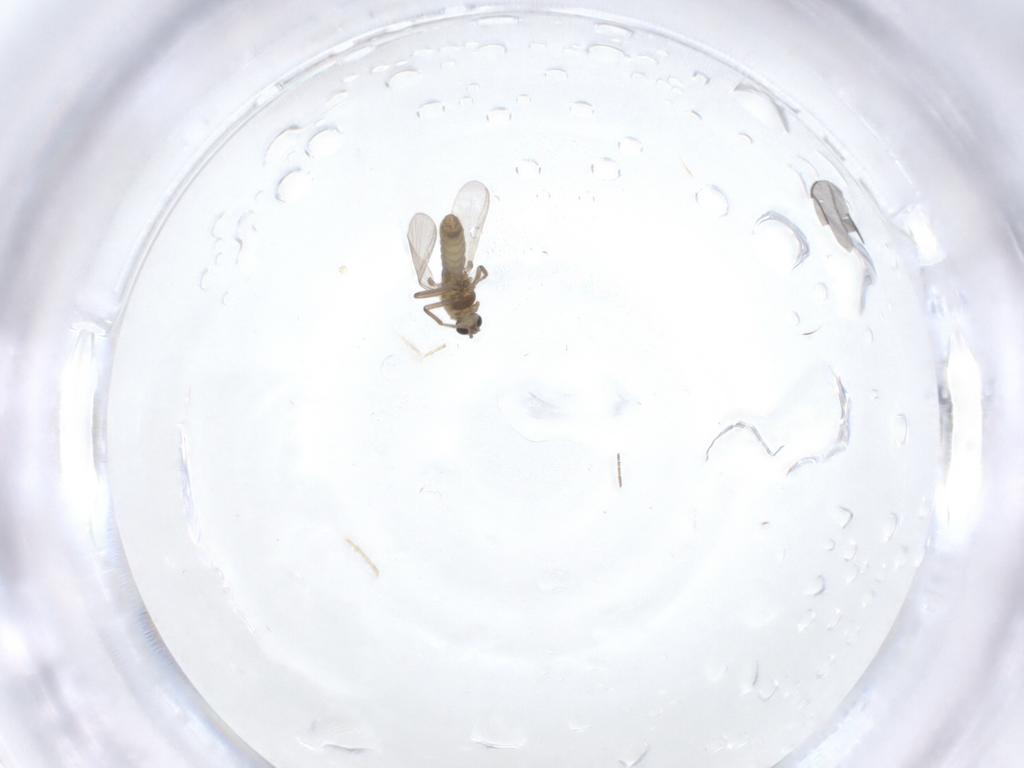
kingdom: Animalia
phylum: Arthropoda
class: Insecta
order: Diptera
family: Chironomidae
